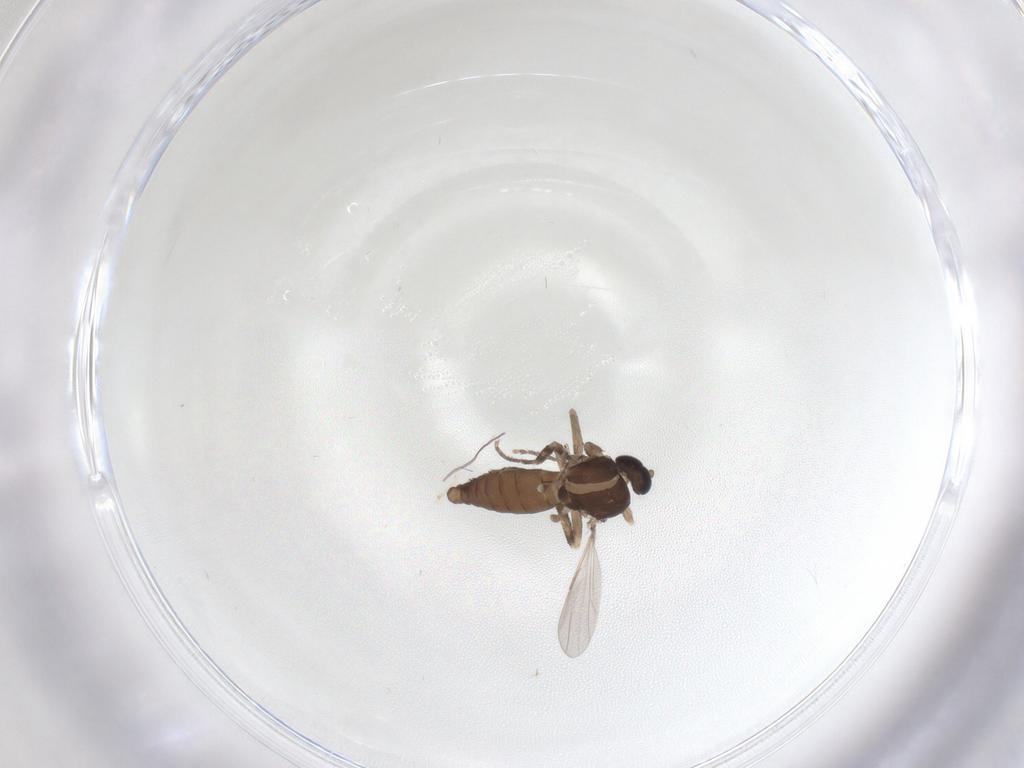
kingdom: Animalia
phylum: Arthropoda
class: Insecta
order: Diptera
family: Ceratopogonidae
